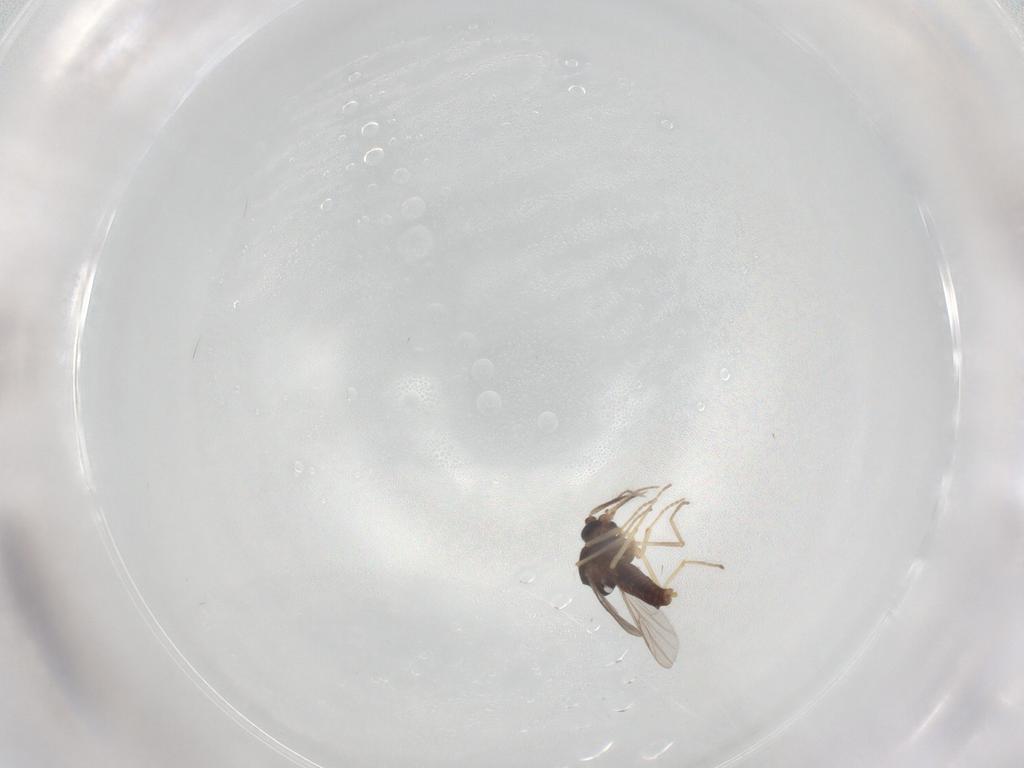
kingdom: Animalia
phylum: Arthropoda
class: Insecta
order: Diptera
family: Ceratopogonidae
